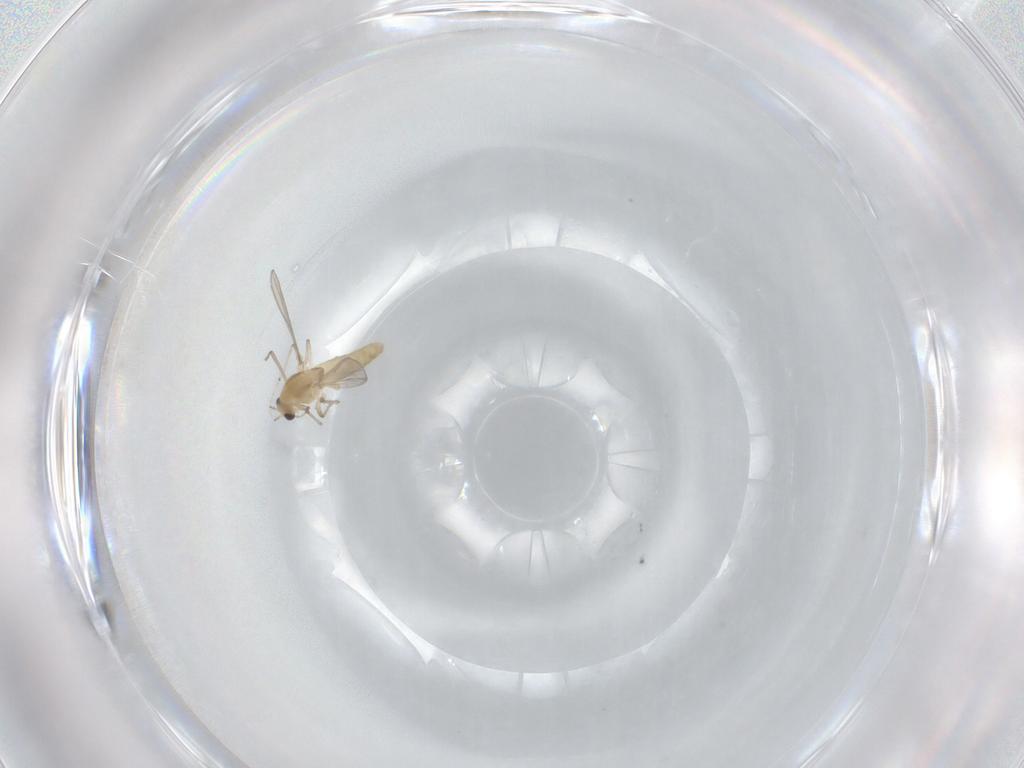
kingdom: Animalia
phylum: Arthropoda
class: Insecta
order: Diptera
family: Chironomidae
